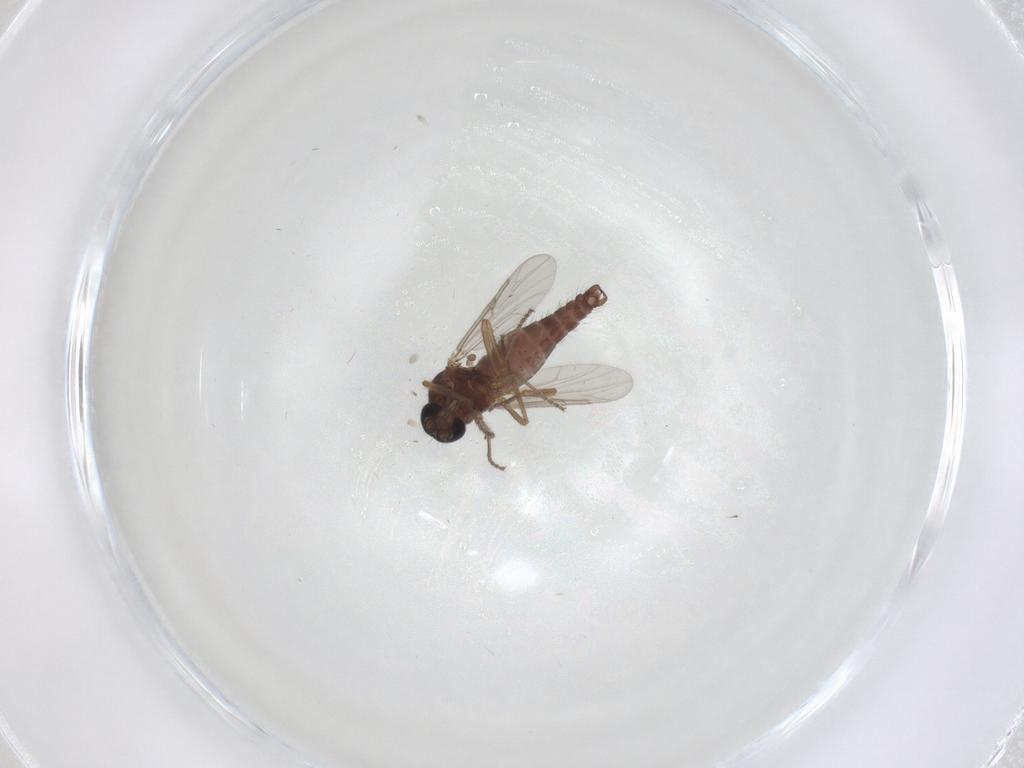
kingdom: Animalia
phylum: Arthropoda
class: Insecta
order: Diptera
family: Ceratopogonidae
